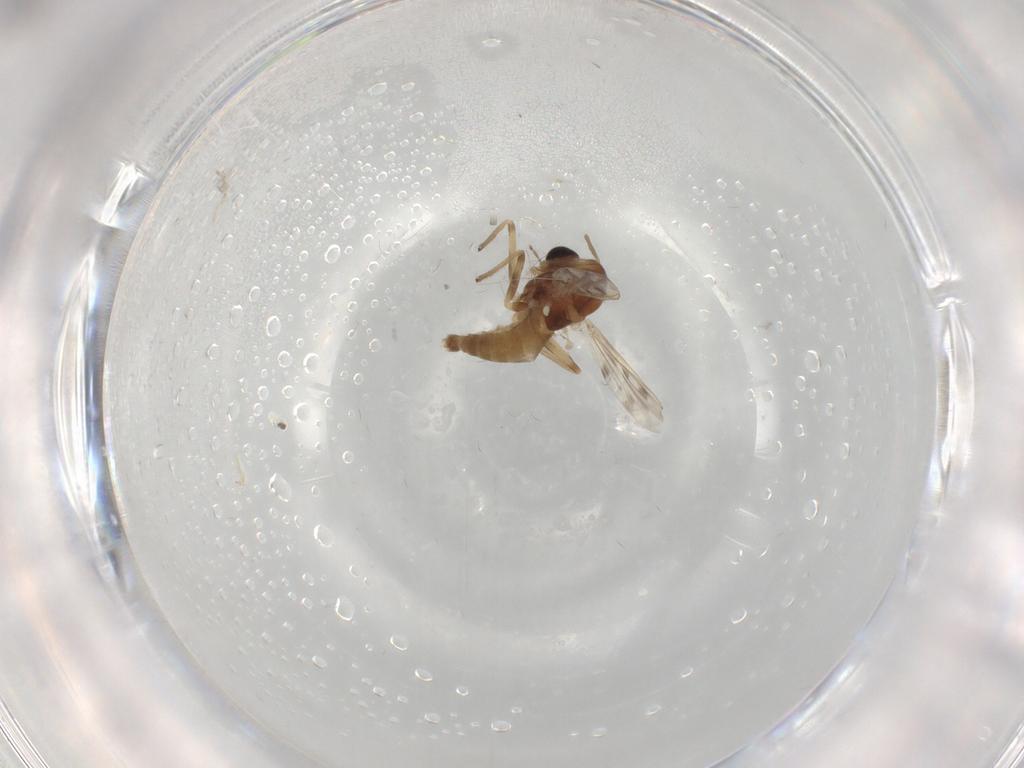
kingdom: Animalia
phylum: Arthropoda
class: Insecta
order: Diptera
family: Chironomidae
